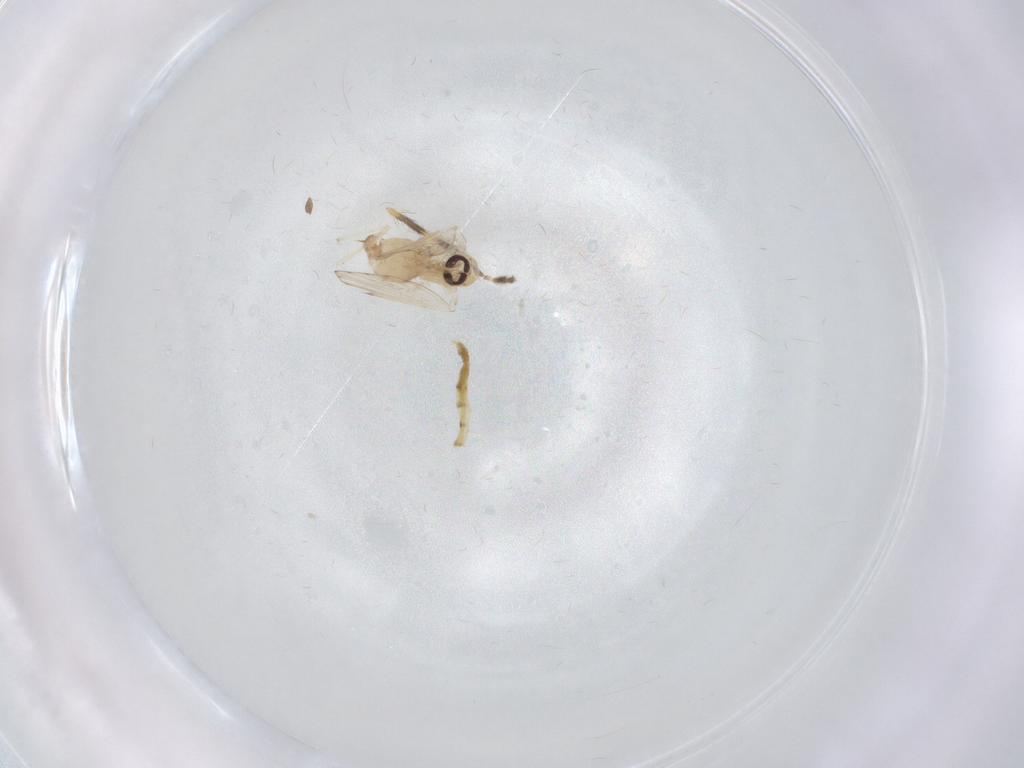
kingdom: Animalia
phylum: Arthropoda
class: Insecta
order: Diptera
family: Psychodidae
